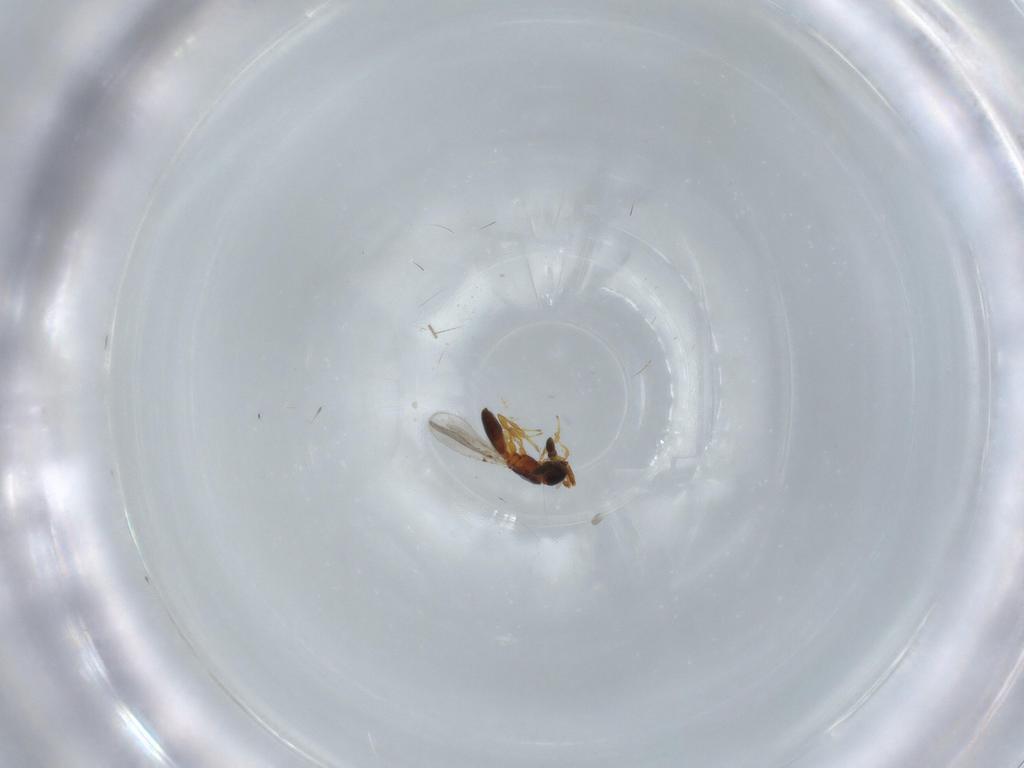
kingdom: Animalia
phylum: Arthropoda
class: Insecta
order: Hymenoptera
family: Diapriidae
